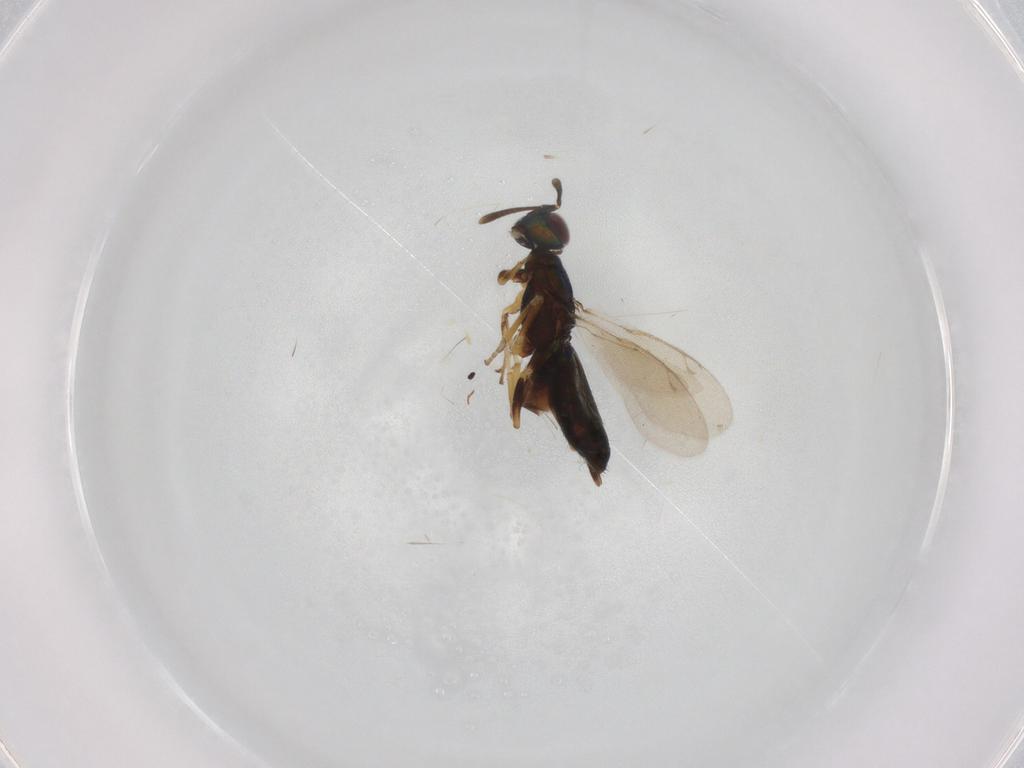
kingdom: Animalia
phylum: Arthropoda
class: Insecta
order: Hymenoptera
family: Eupelmidae
